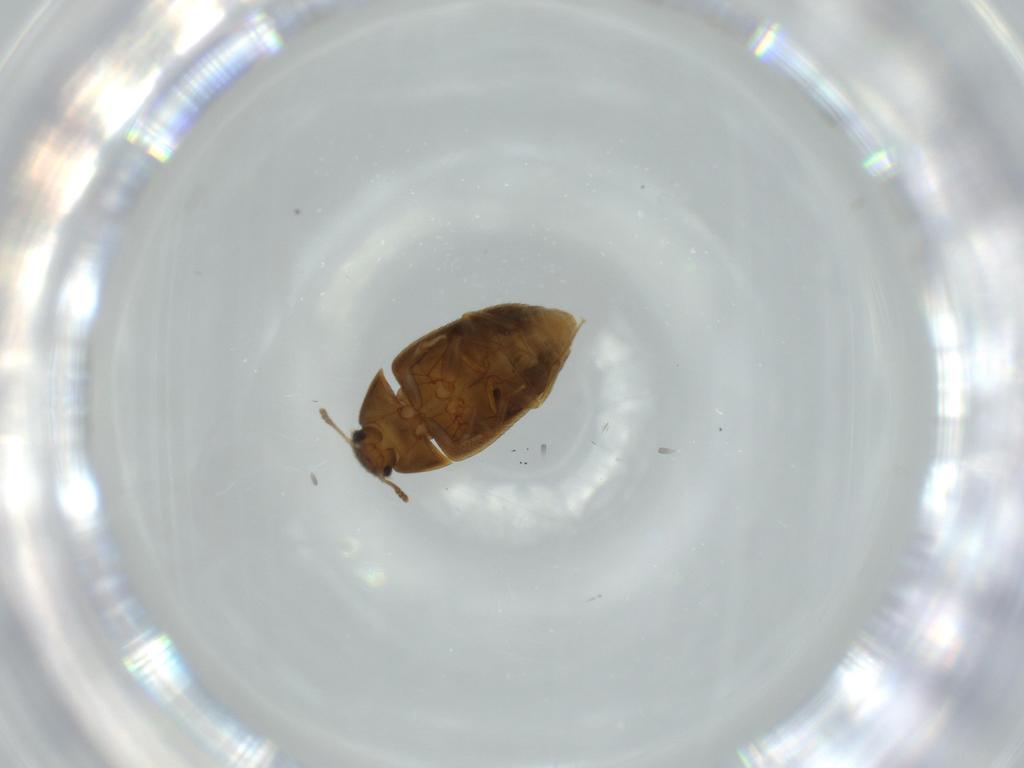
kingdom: Animalia
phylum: Arthropoda
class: Insecta
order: Coleoptera
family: Mycetophagidae
